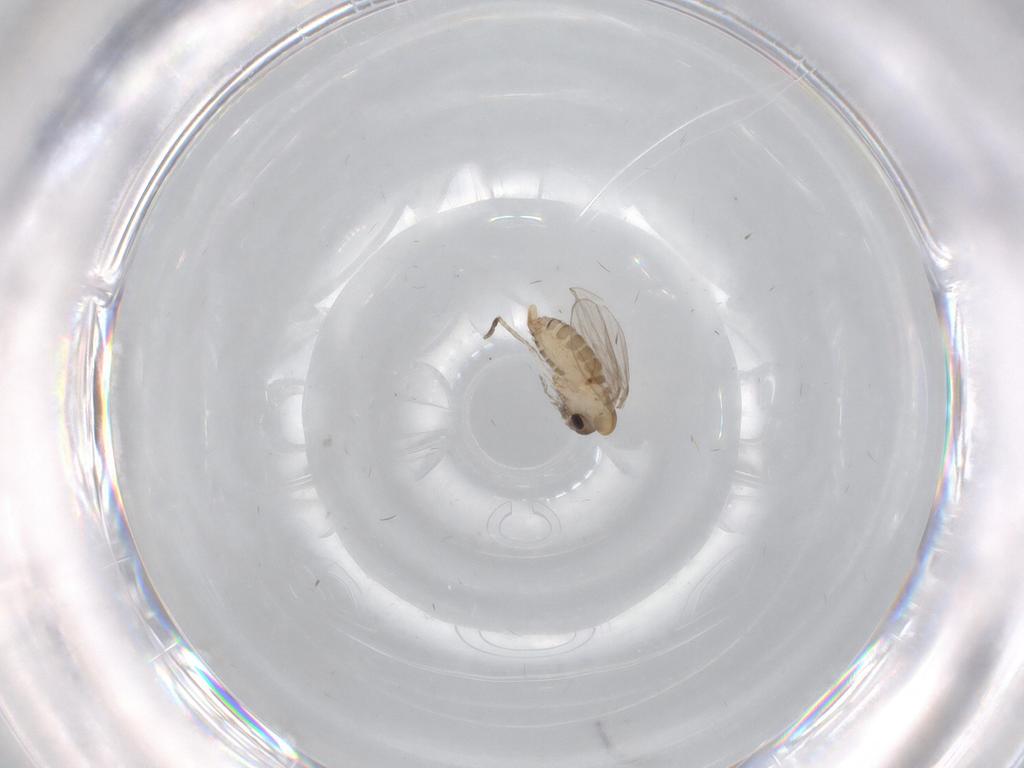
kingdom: Animalia
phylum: Arthropoda
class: Insecta
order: Diptera
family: Psychodidae
